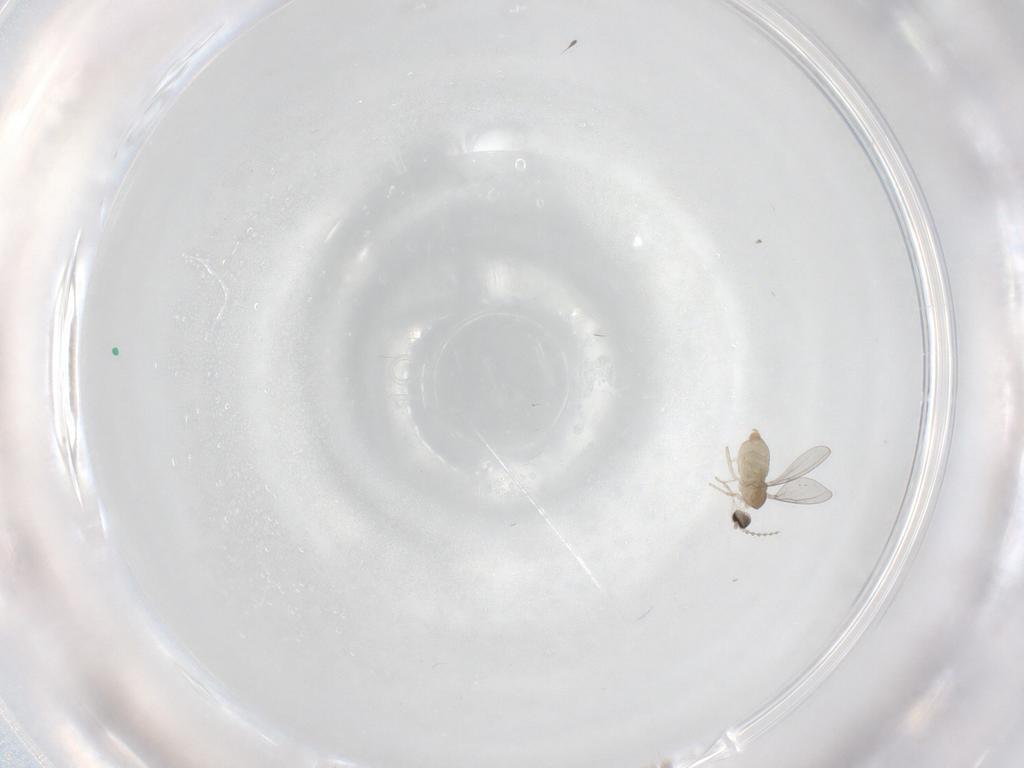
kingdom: Animalia
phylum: Arthropoda
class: Insecta
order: Diptera
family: Cecidomyiidae
